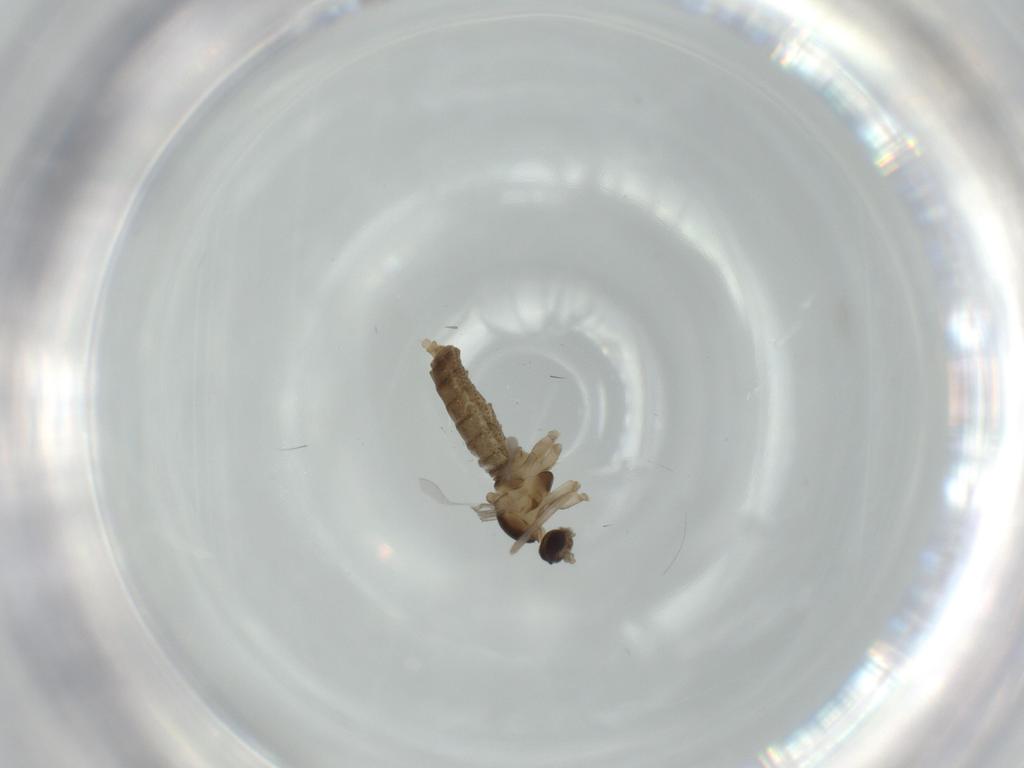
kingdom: Animalia
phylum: Arthropoda
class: Insecta
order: Diptera
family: Cecidomyiidae
